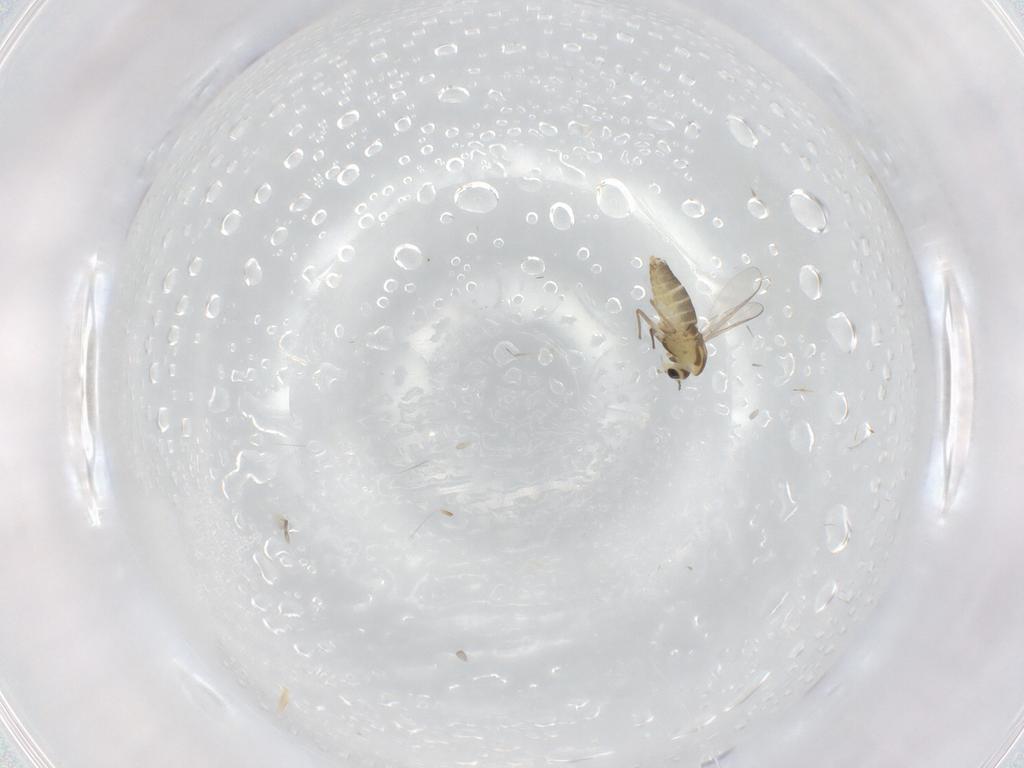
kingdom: Animalia
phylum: Arthropoda
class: Insecta
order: Diptera
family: Chironomidae
